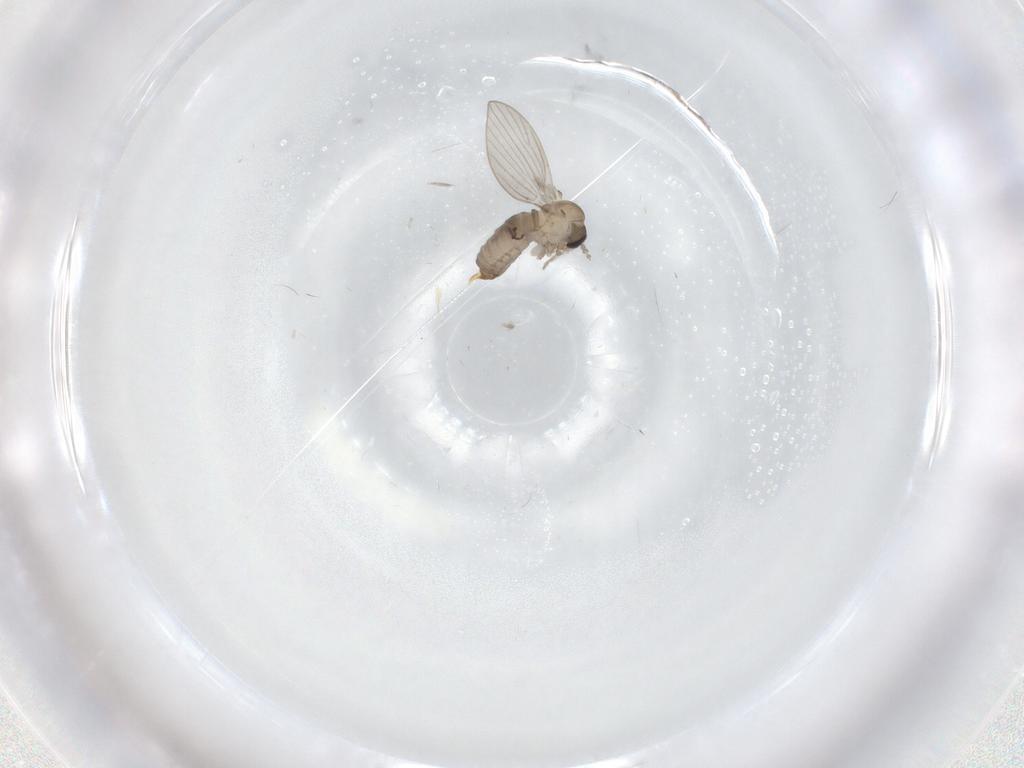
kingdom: Animalia
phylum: Arthropoda
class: Insecta
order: Diptera
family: Psychodidae
